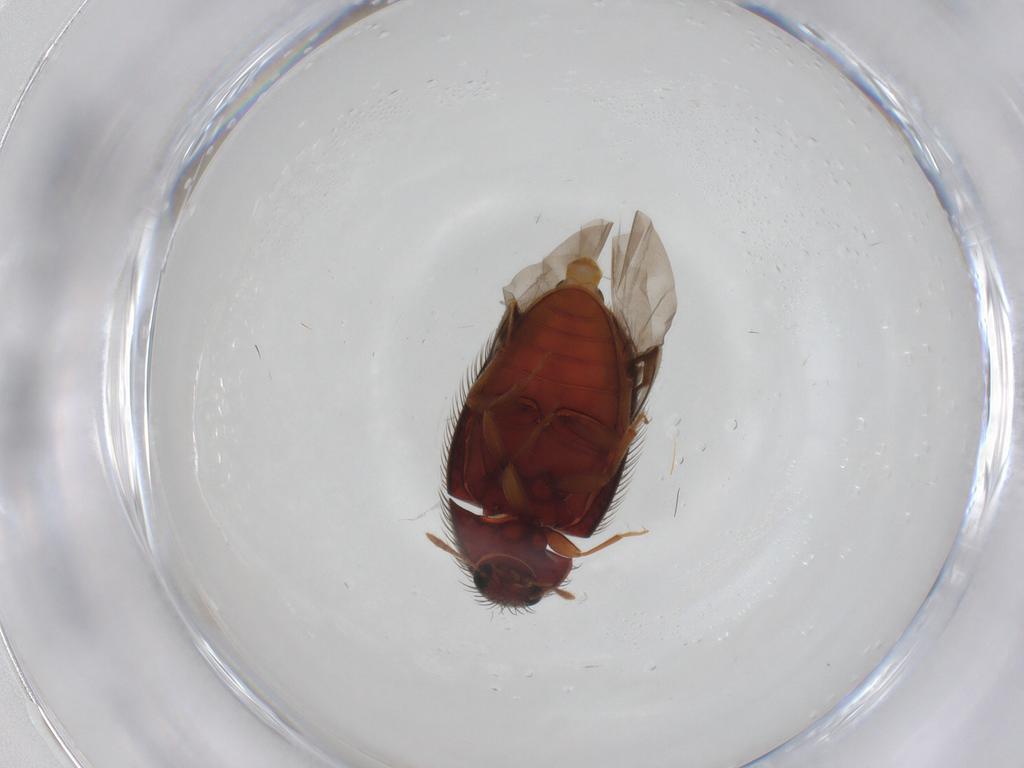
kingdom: Animalia
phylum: Arthropoda
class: Insecta
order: Coleoptera
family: Biphyllidae
